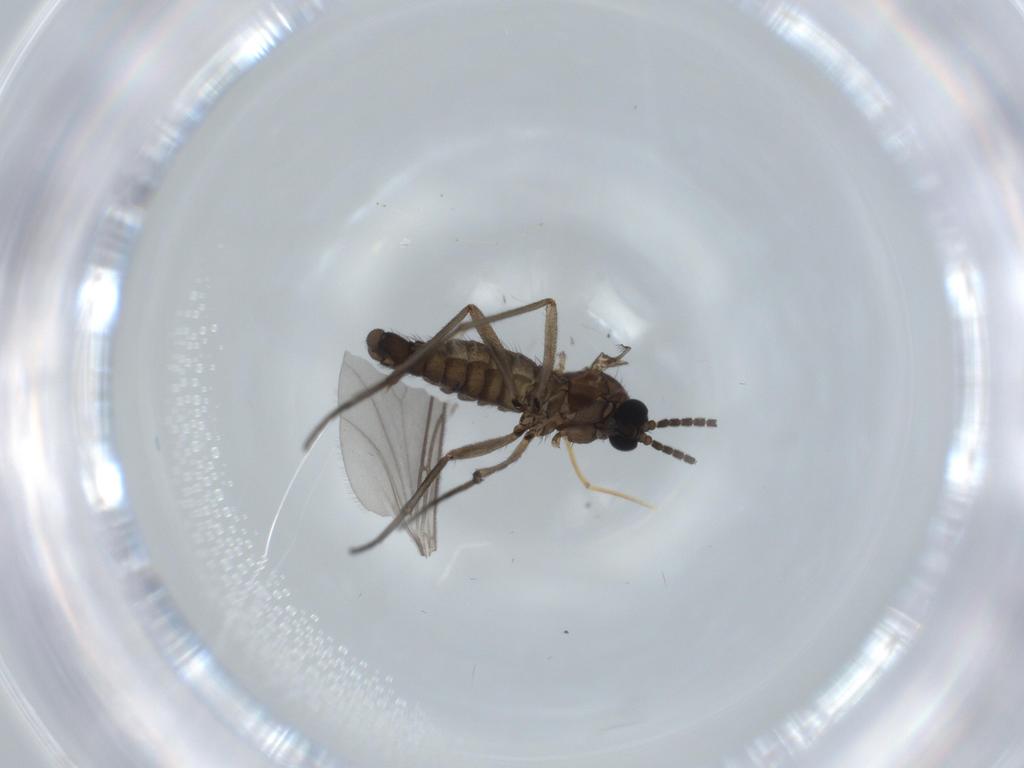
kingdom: Animalia
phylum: Arthropoda
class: Insecta
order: Diptera
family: Sciaridae
